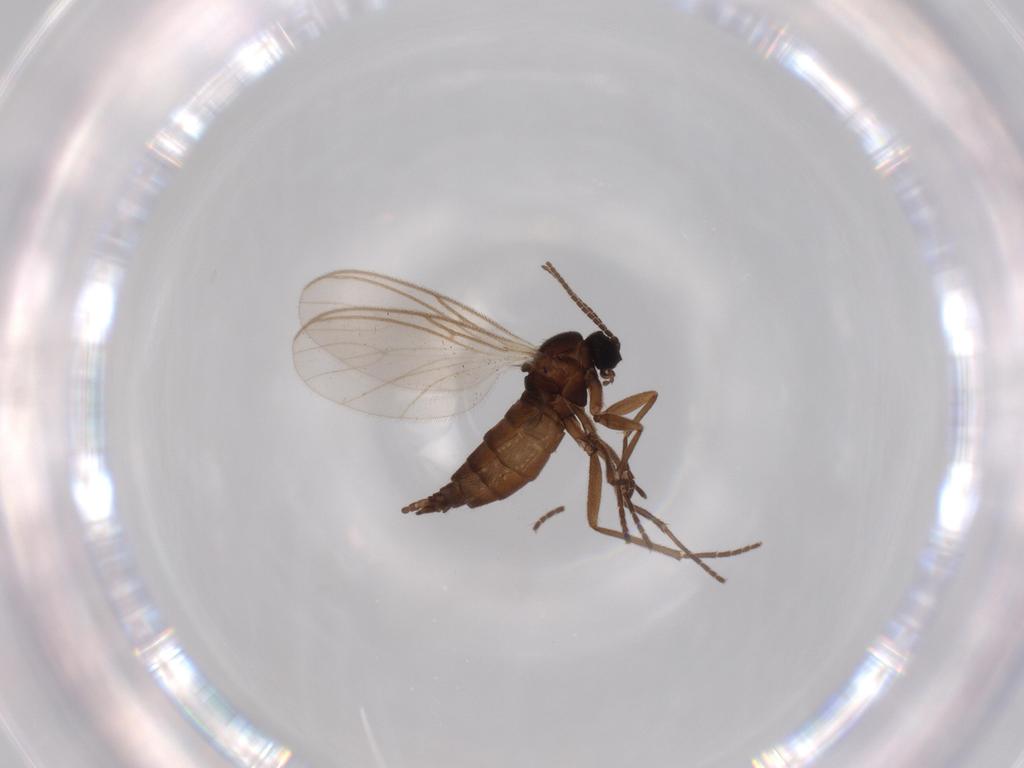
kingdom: Animalia
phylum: Arthropoda
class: Insecta
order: Diptera
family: Sciaridae
